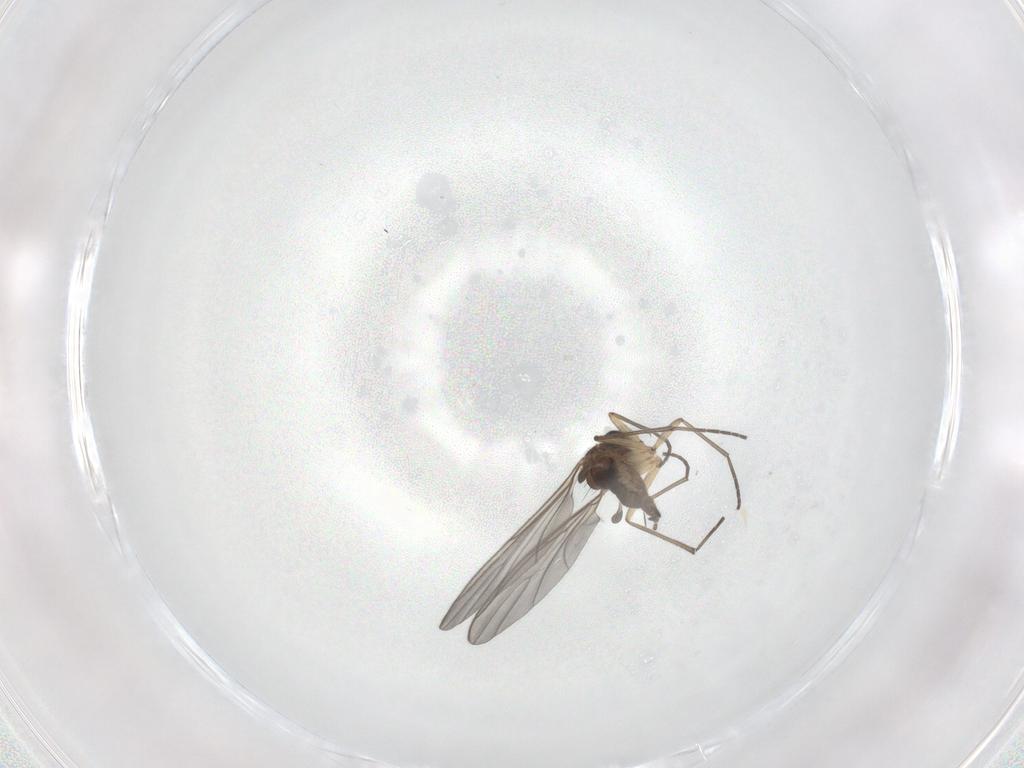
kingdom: Animalia
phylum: Arthropoda
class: Insecta
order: Diptera
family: Sciaridae
